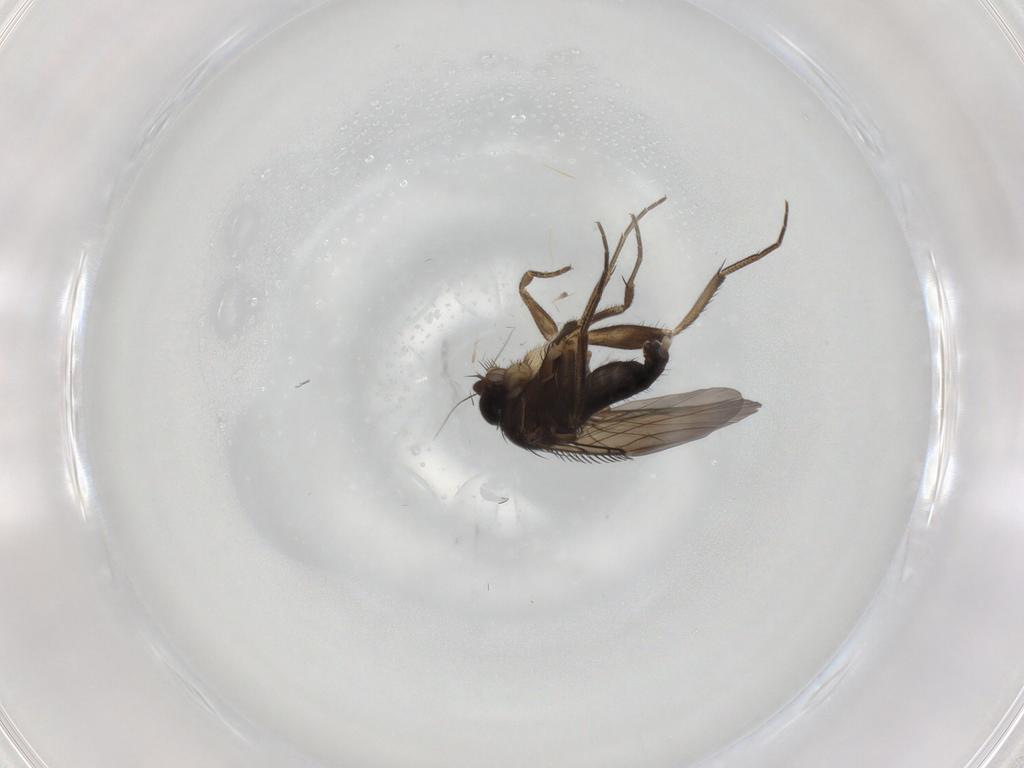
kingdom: Animalia
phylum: Arthropoda
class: Insecta
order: Diptera
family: Phoridae
